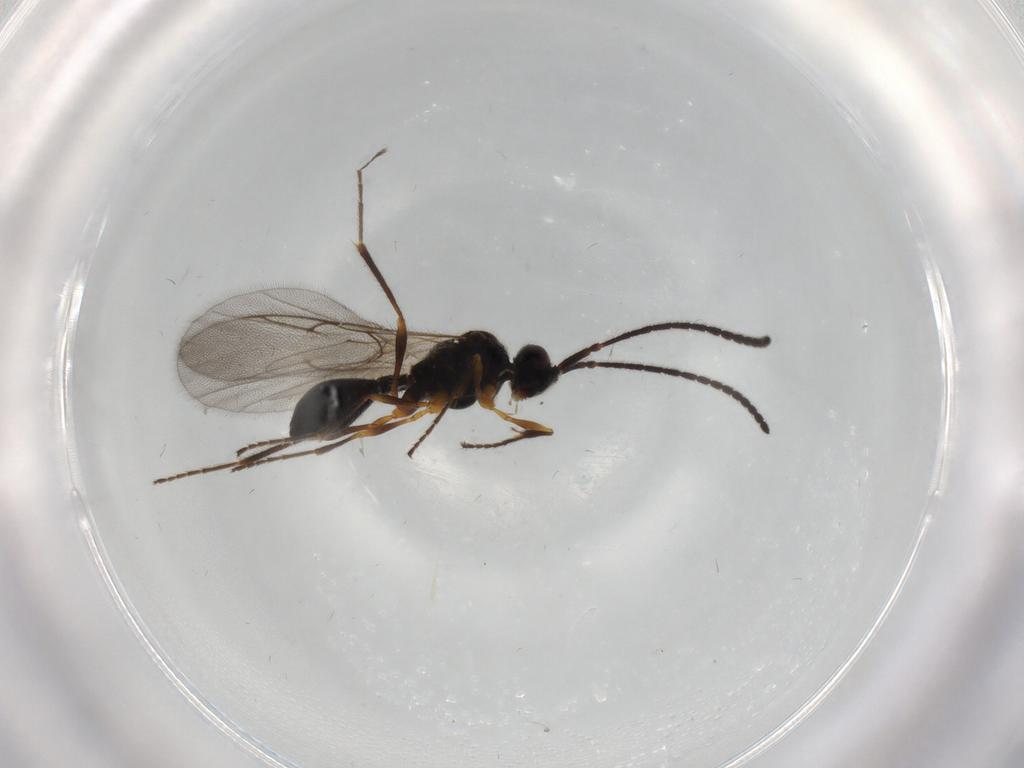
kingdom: Animalia
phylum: Arthropoda
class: Insecta
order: Hymenoptera
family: Diapriidae
